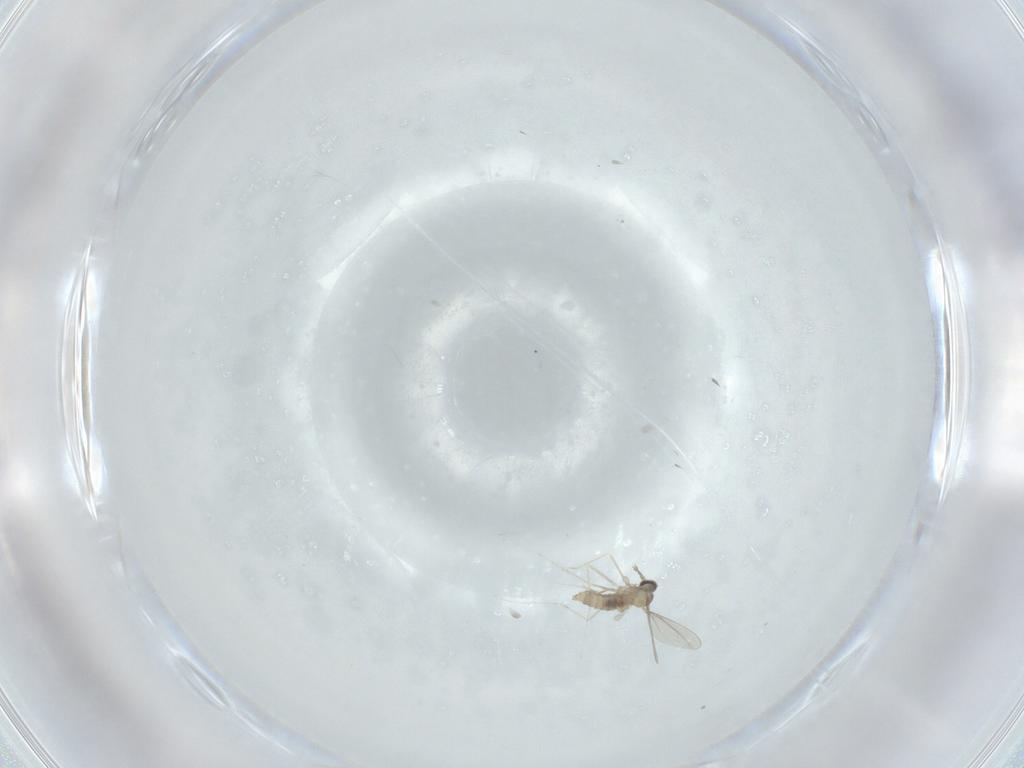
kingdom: Animalia
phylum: Arthropoda
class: Insecta
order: Diptera
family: Cecidomyiidae
